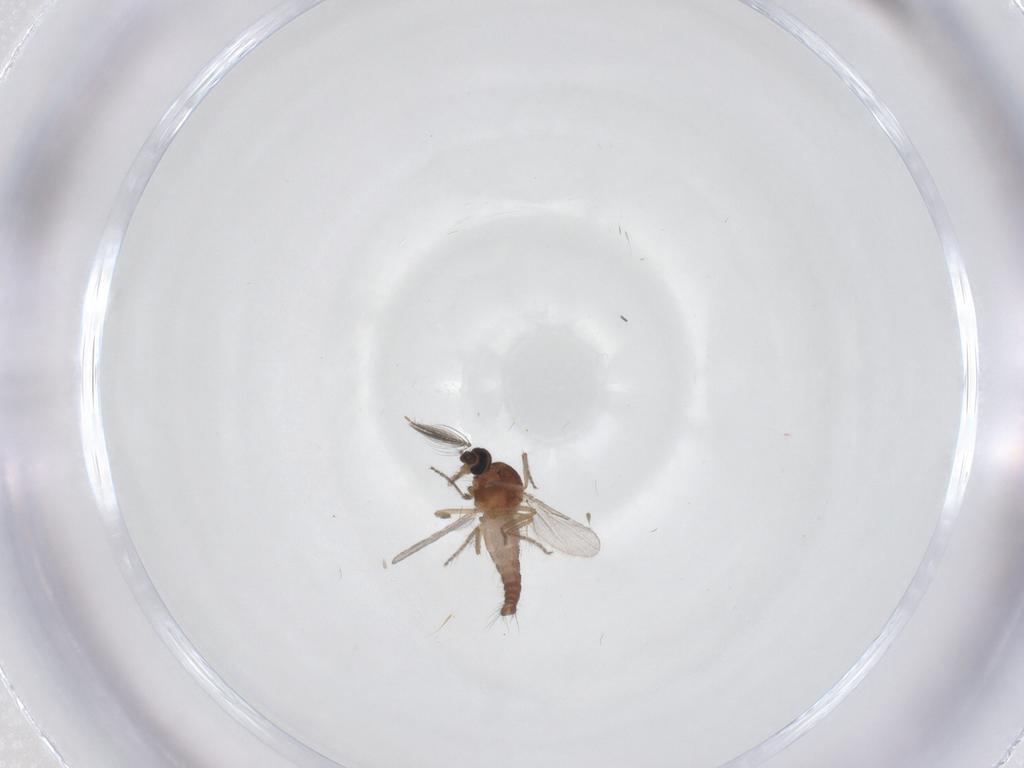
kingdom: Animalia
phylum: Arthropoda
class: Insecta
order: Diptera
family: Ceratopogonidae
